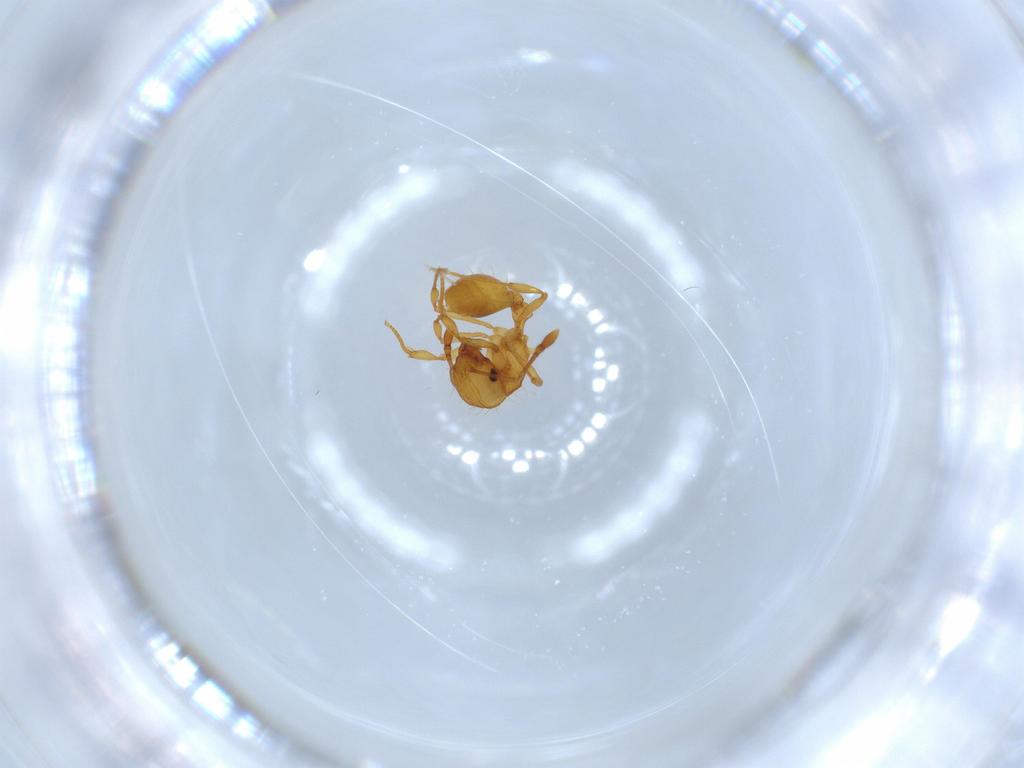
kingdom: Animalia
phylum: Arthropoda
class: Insecta
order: Hymenoptera
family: Formicidae
